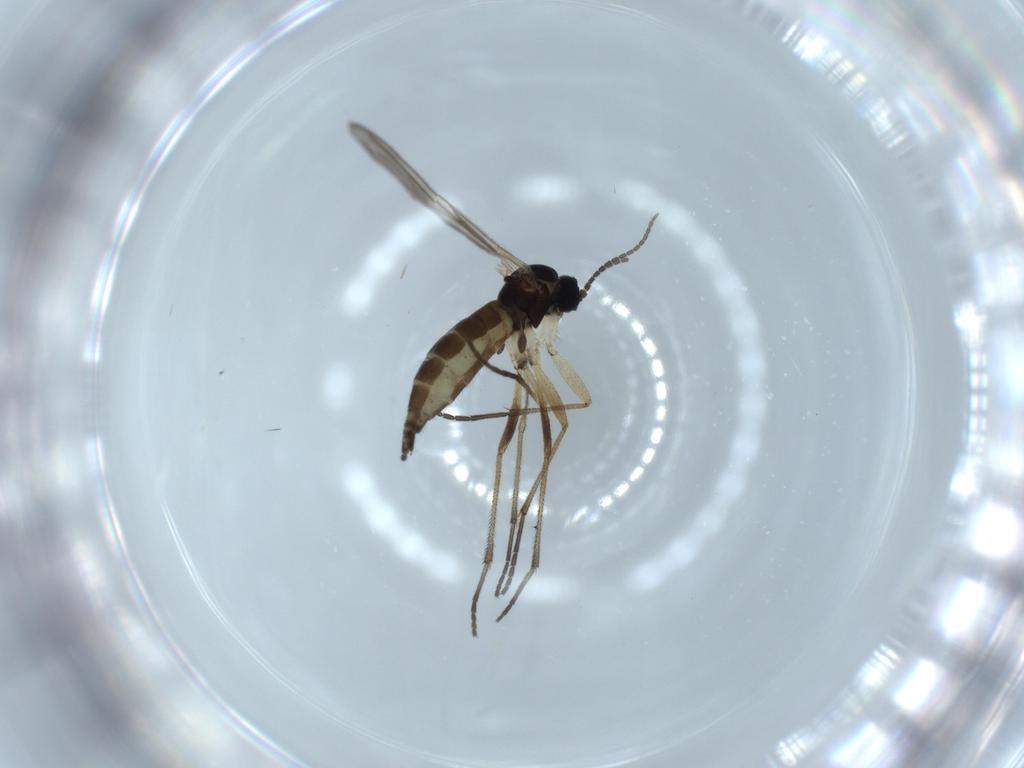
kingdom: Animalia
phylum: Arthropoda
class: Insecta
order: Diptera
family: Sciaridae
